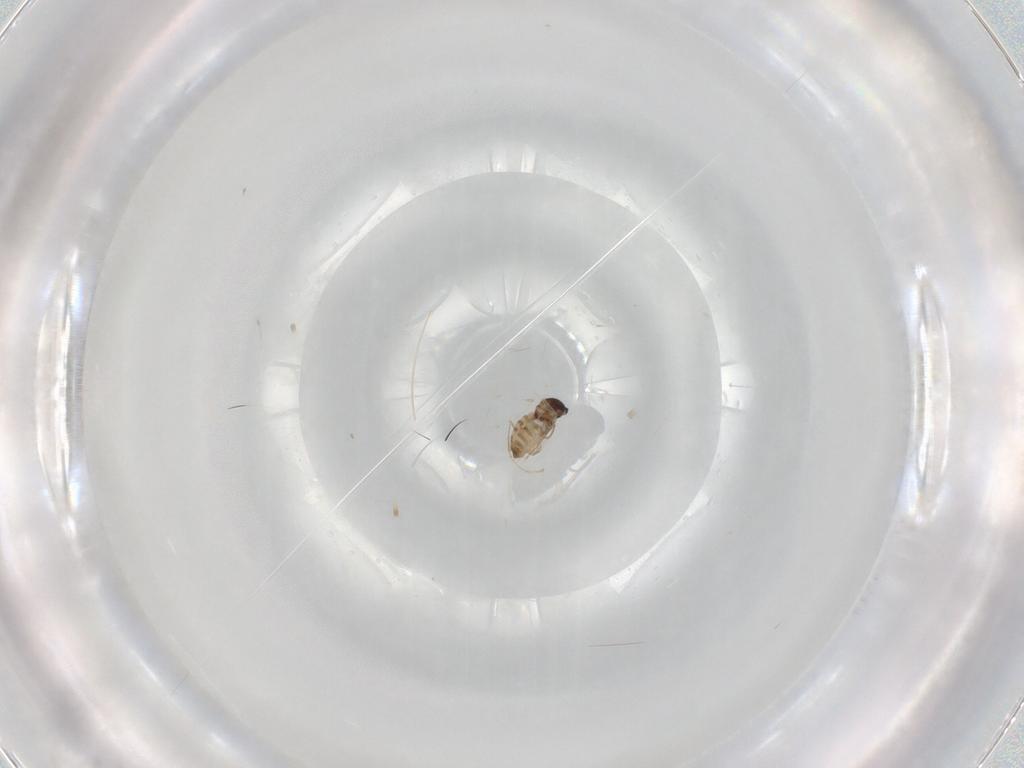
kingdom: Animalia
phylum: Arthropoda
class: Insecta
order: Diptera
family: Cecidomyiidae
